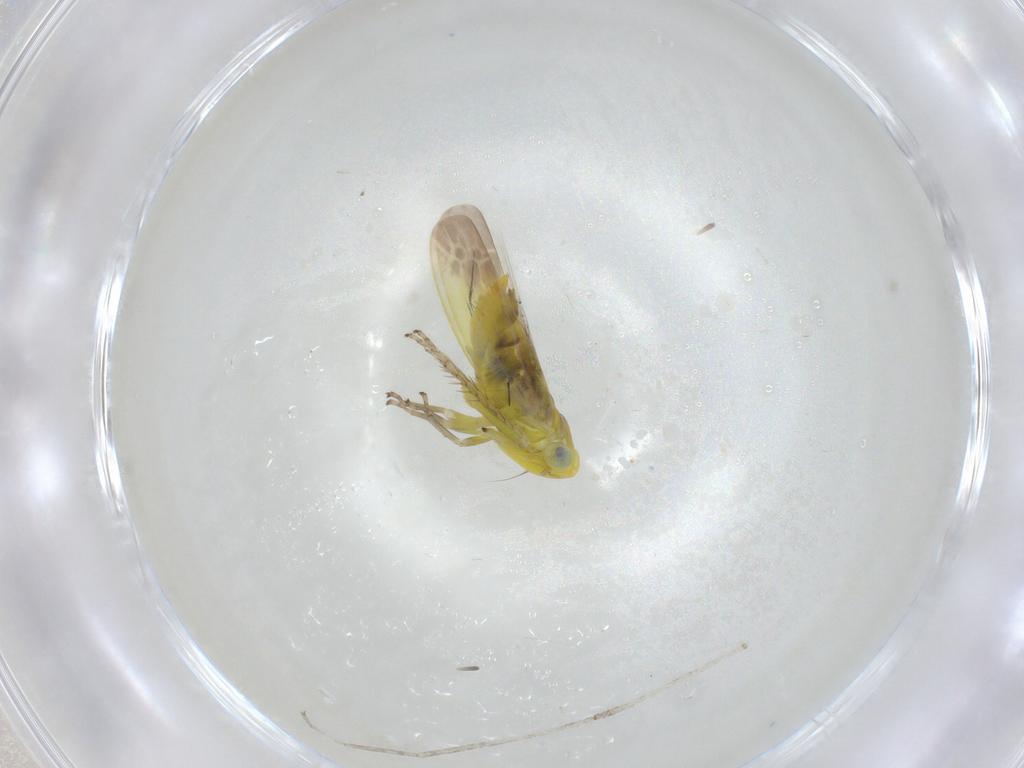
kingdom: Animalia
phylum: Arthropoda
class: Insecta
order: Hemiptera
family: Cicadellidae
